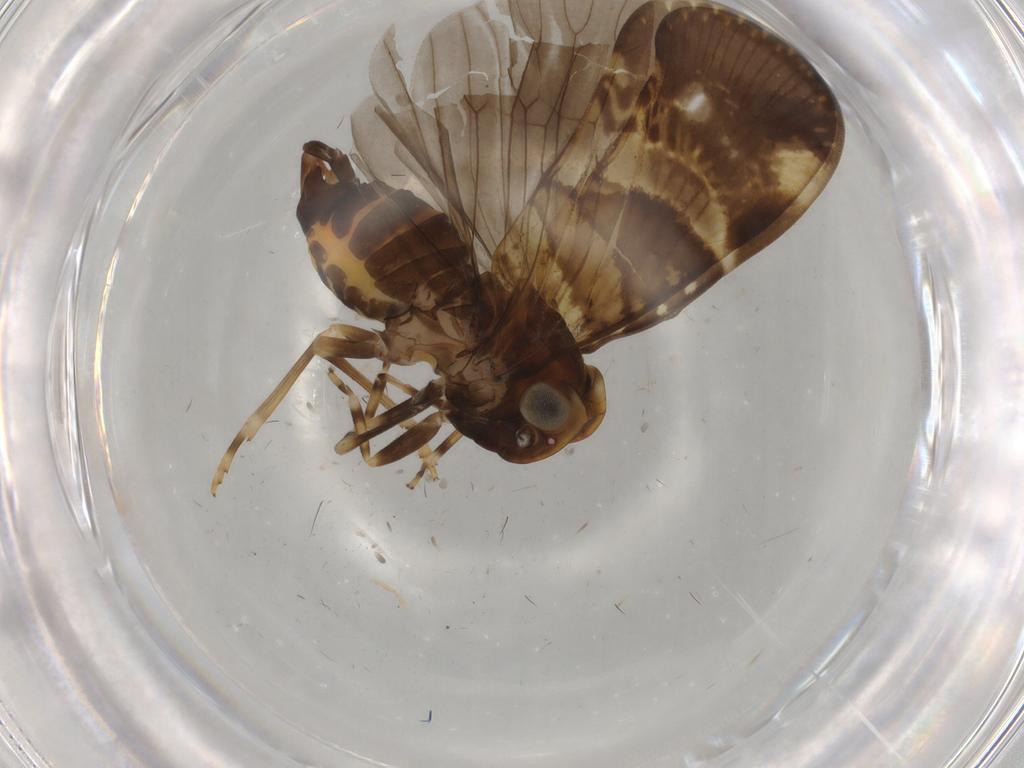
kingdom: Animalia
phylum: Arthropoda
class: Insecta
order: Hemiptera
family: Cixiidae
